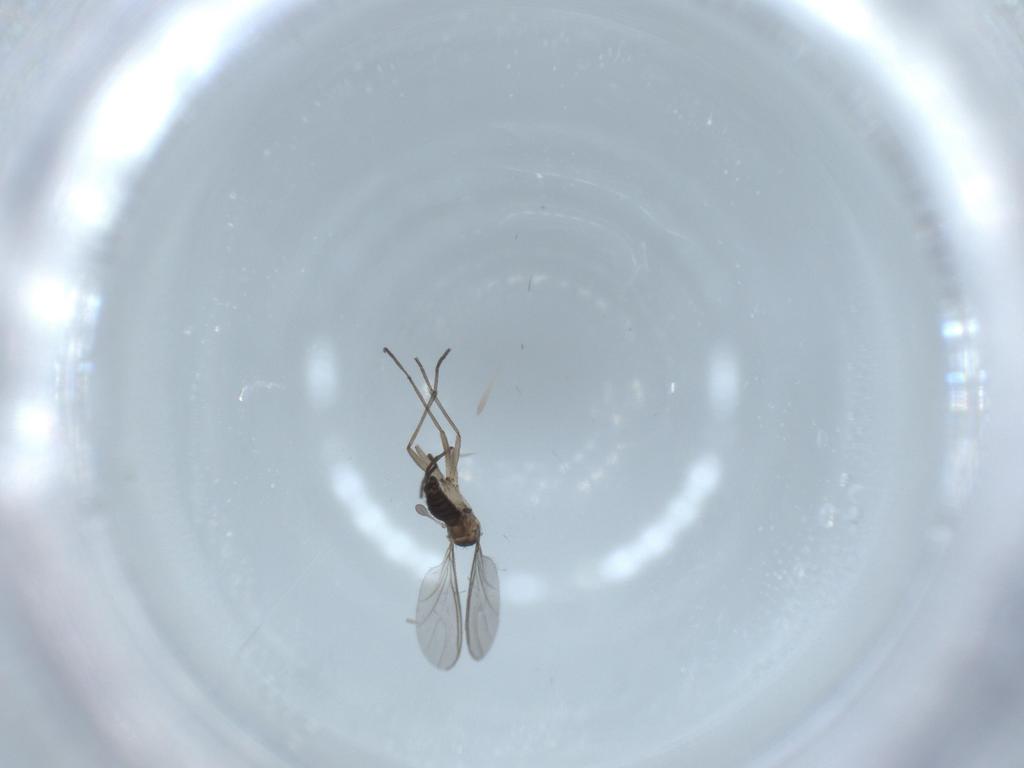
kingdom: Animalia
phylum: Arthropoda
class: Insecta
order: Diptera
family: Sciaridae
